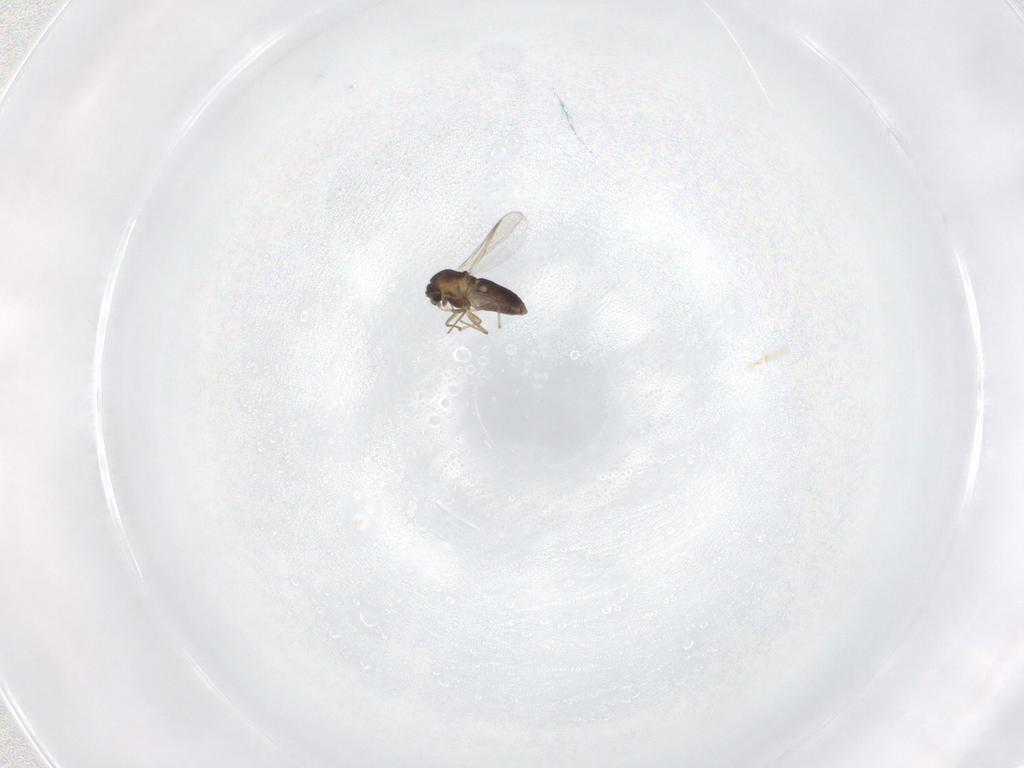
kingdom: Animalia
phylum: Arthropoda
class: Insecta
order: Diptera
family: Chironomidae
